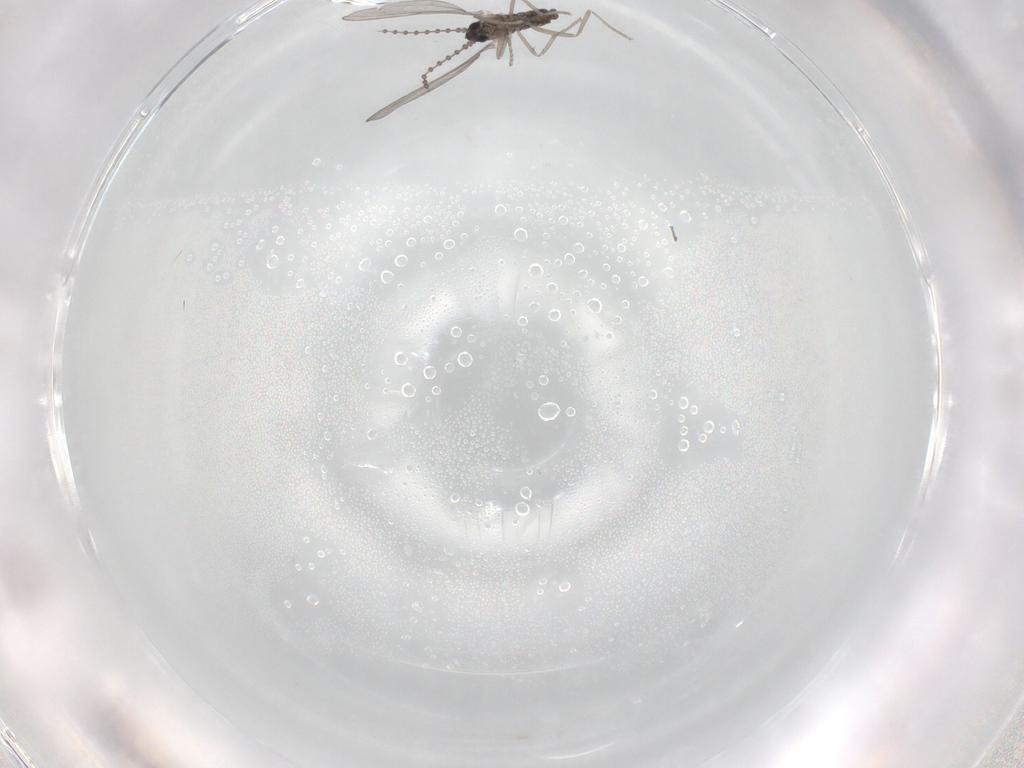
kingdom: Animalia
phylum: Arthropoda
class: Insecta
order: Diptera
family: Cecidomyiidae
